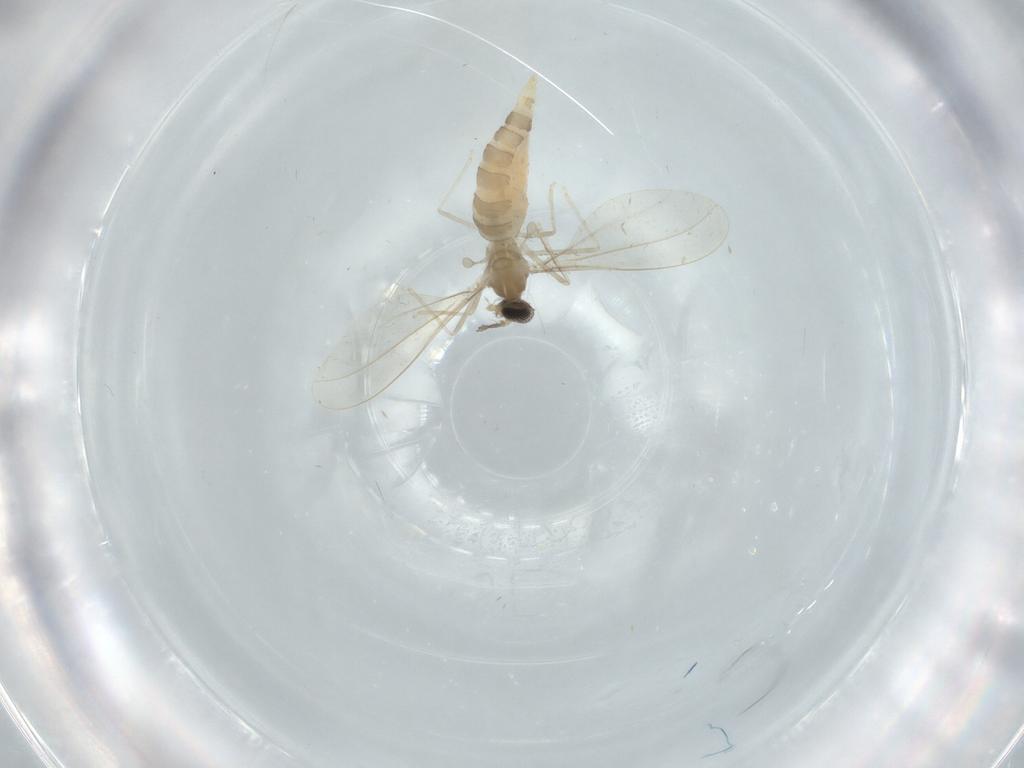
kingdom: Animalia
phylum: Arthropoda
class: Insecta
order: Diptera
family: Cecidomyiidae
